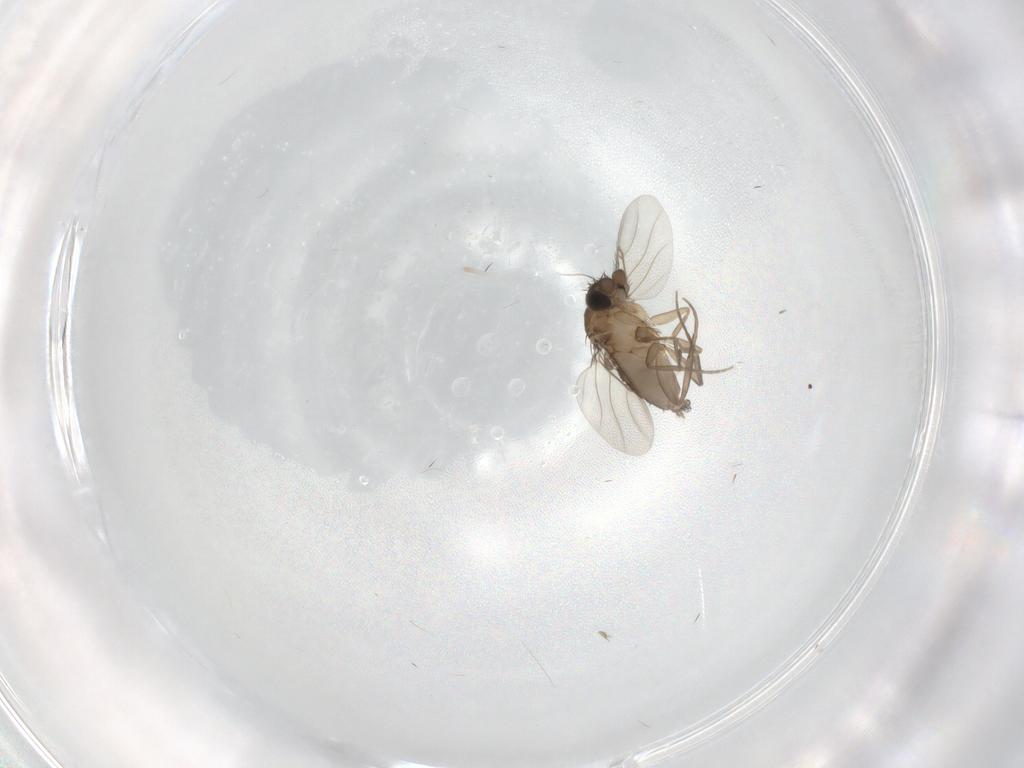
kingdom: Animalia
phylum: Arthropoda
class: Insecta
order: Diptera
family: Phoridae
